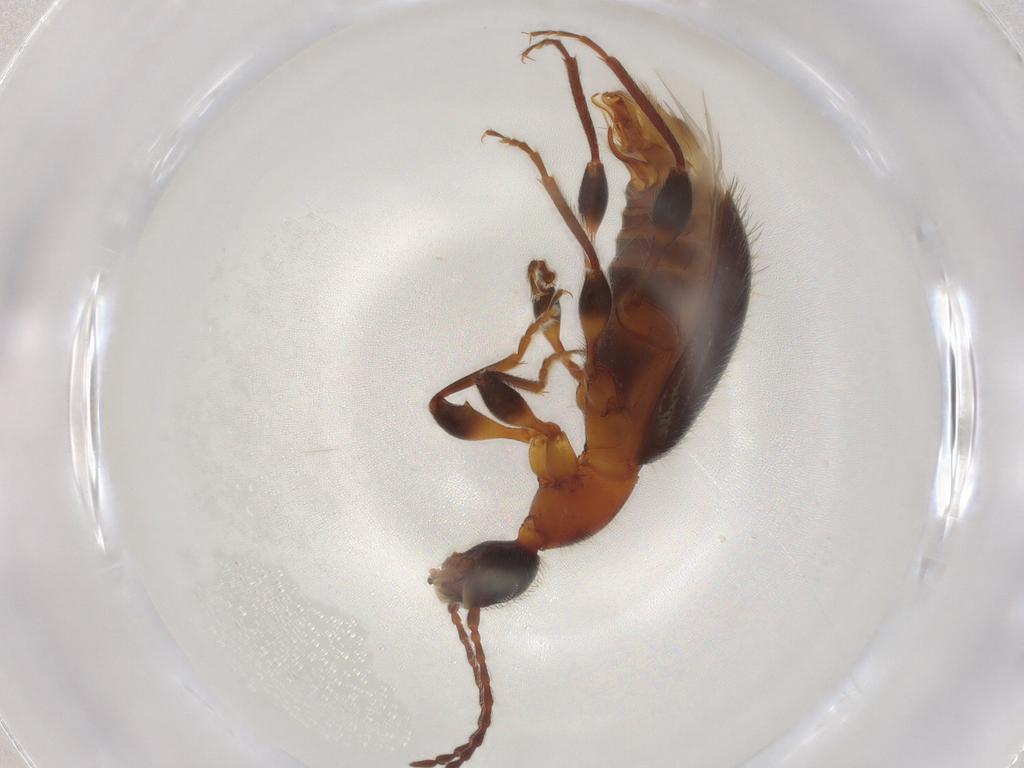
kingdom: Animalia
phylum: Arthropoda
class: Insecta
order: Coleoptera
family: Anthicidae
